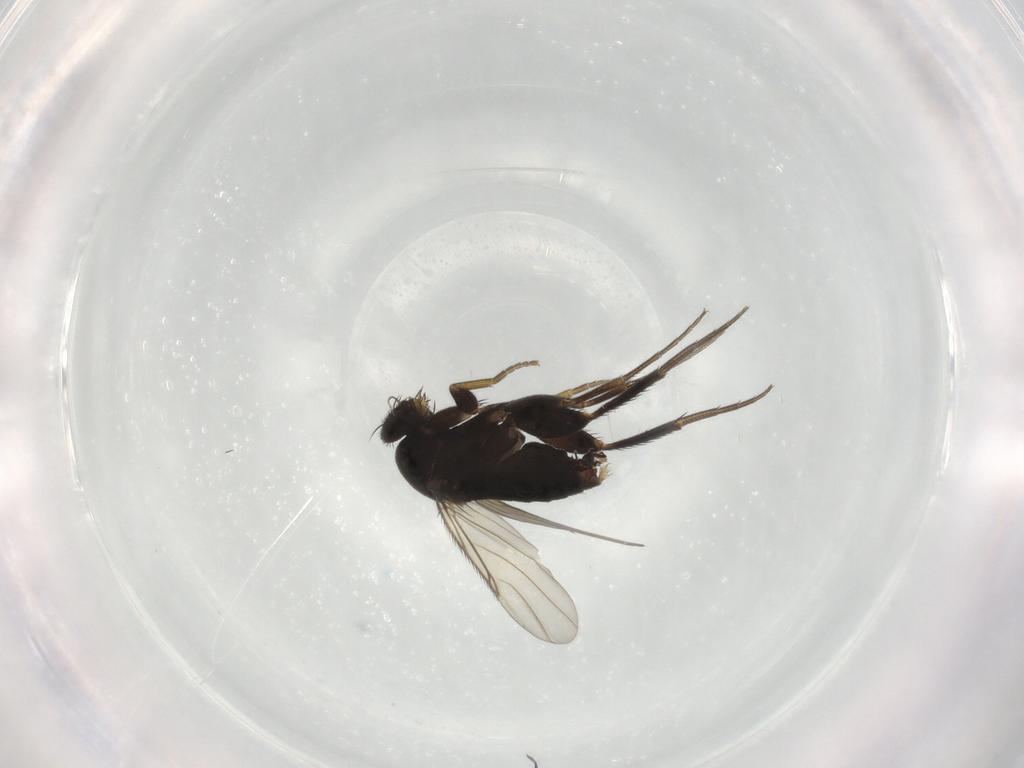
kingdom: Animalia
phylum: Arthropoda
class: Insecta
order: Diptera
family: Phoridae
